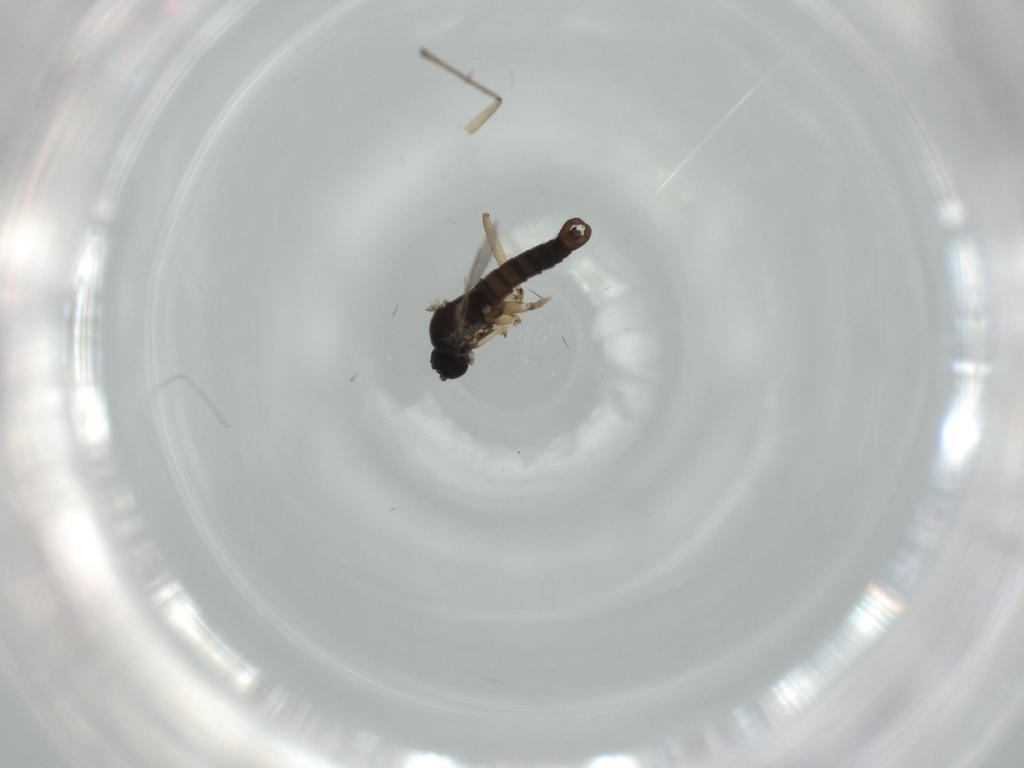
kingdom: Animalia
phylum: Arthropoda
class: Insecta
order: Diptera
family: Sciaridae
